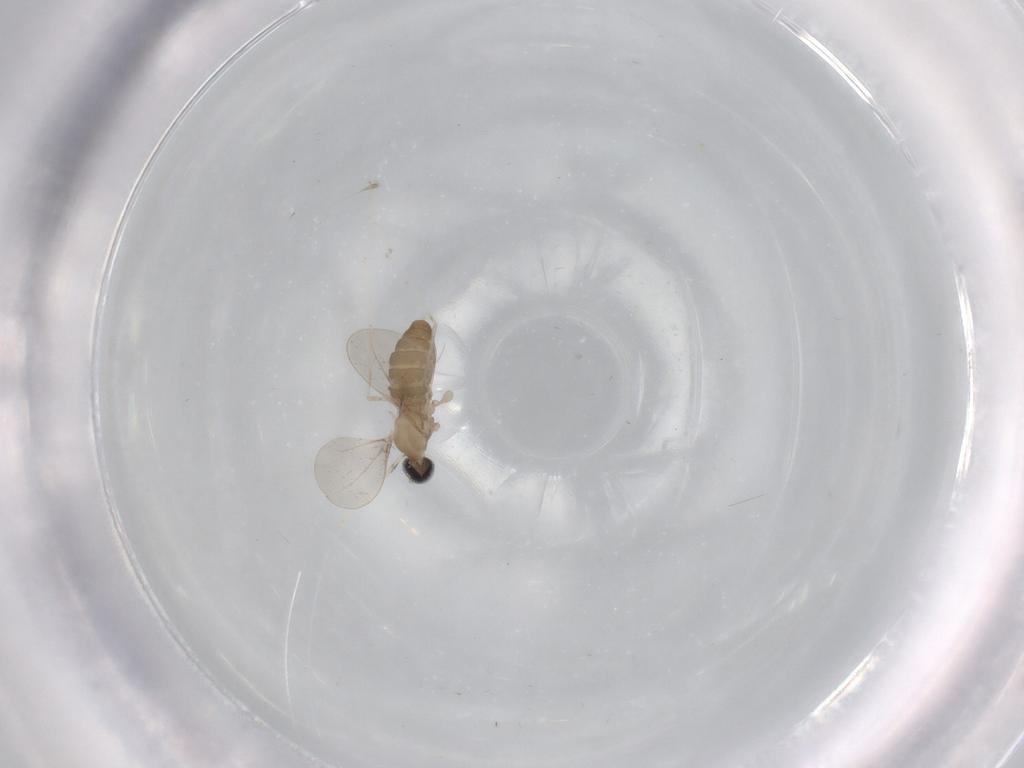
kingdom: Animalia
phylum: Arthropoda
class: Insecta
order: Diptera
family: Cecidomyiidae
